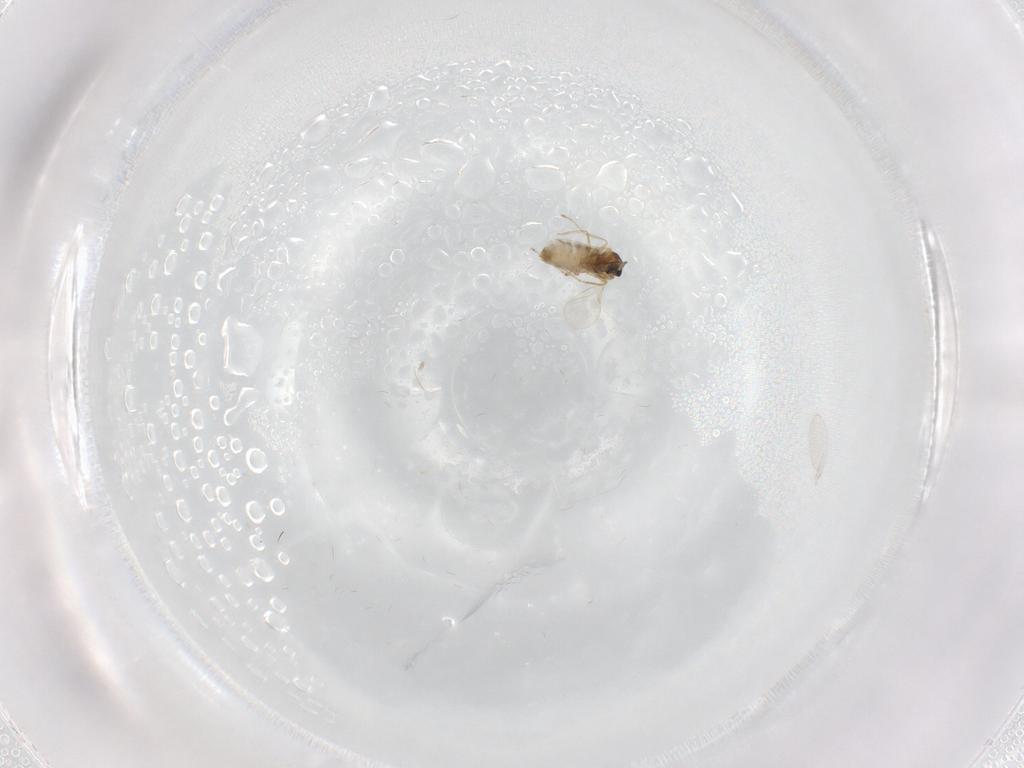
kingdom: Animalia
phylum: Arthropoda
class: Insecta
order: Diptera
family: Cecidomyiidae
